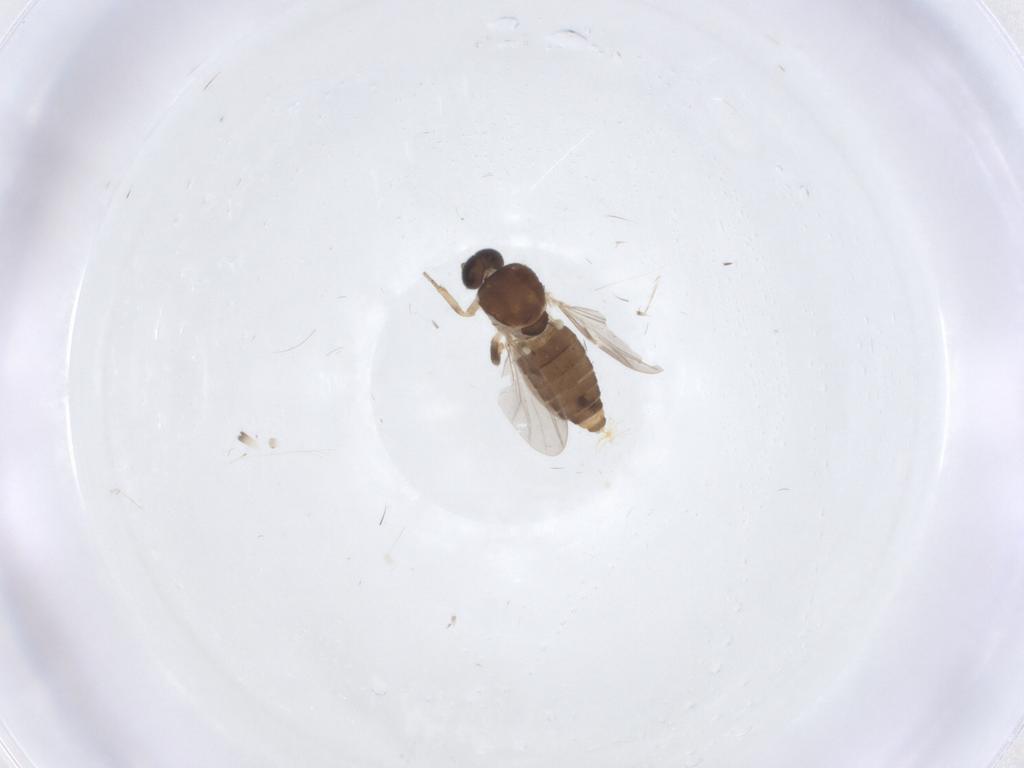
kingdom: Animalia
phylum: Arthropoda
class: Insecta
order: Diptera
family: Ceratopogonidae
